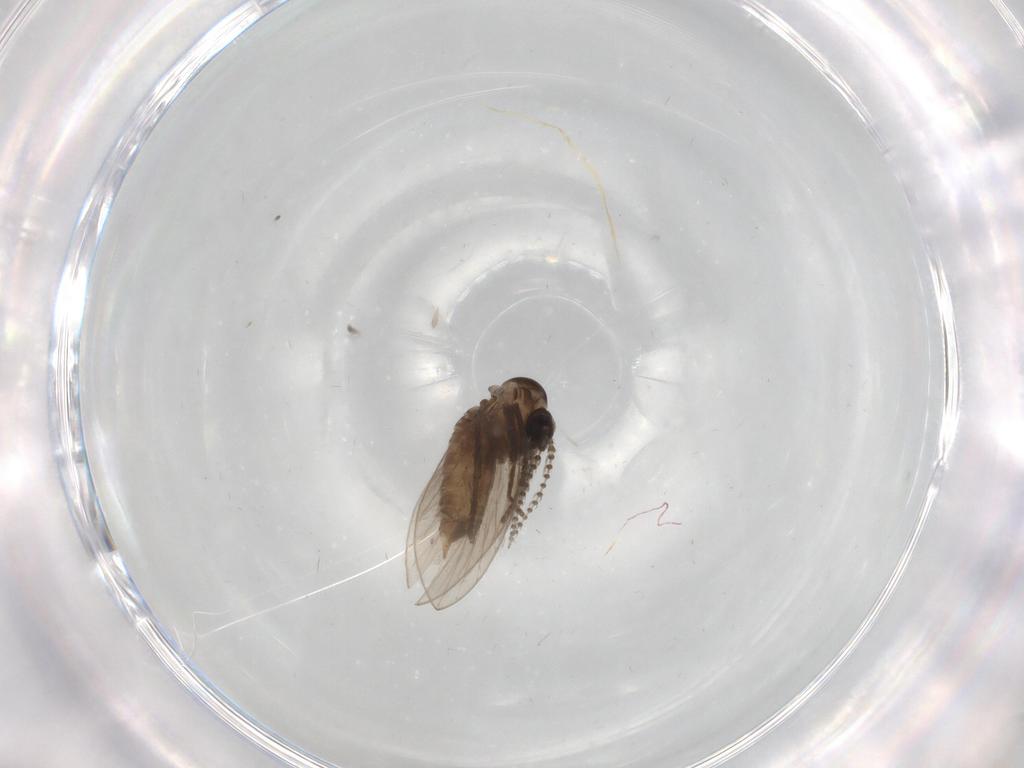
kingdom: Animalia
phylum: Arthropoda
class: Insecta
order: Diptera
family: Psychodidae
